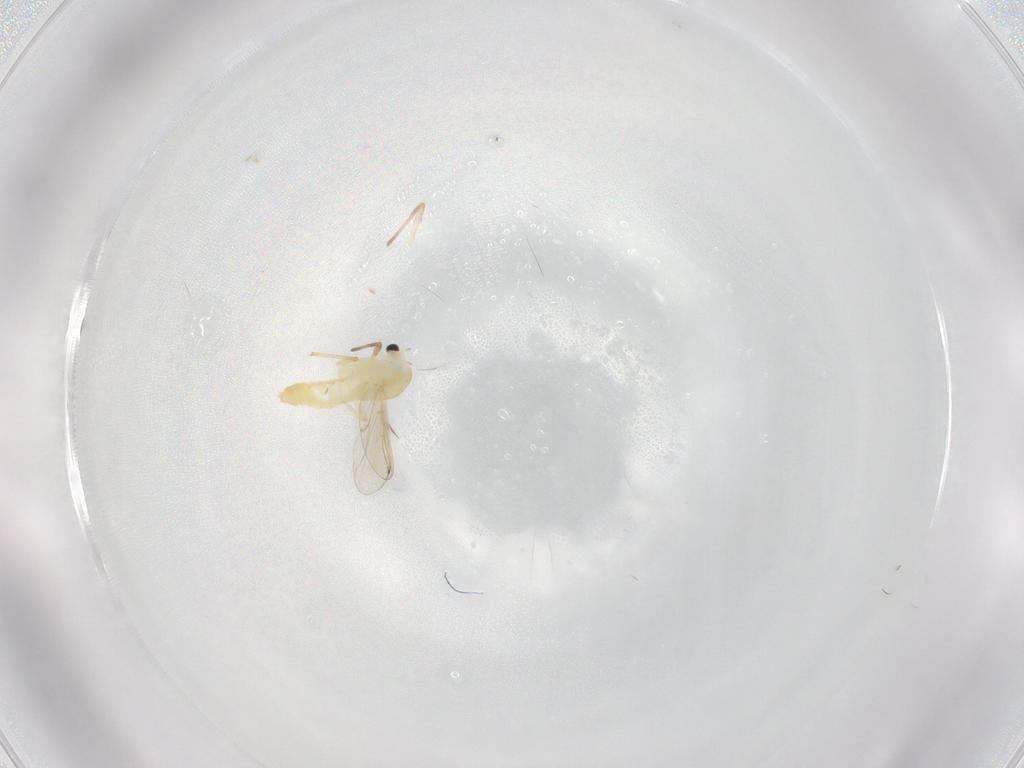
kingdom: Animalia
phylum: Arthropoda
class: Insecta
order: Diptera
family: Chironomidae
